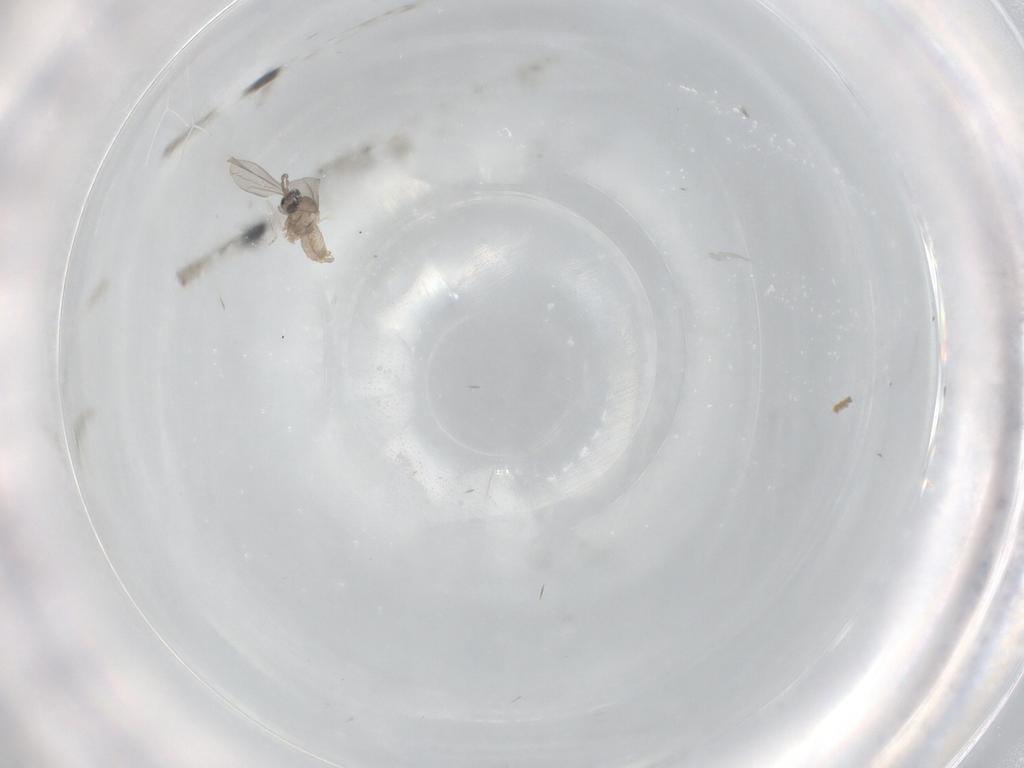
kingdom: Animalia
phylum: Arthropoda
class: Insecta
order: Diptera
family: Cecidomyiidae
